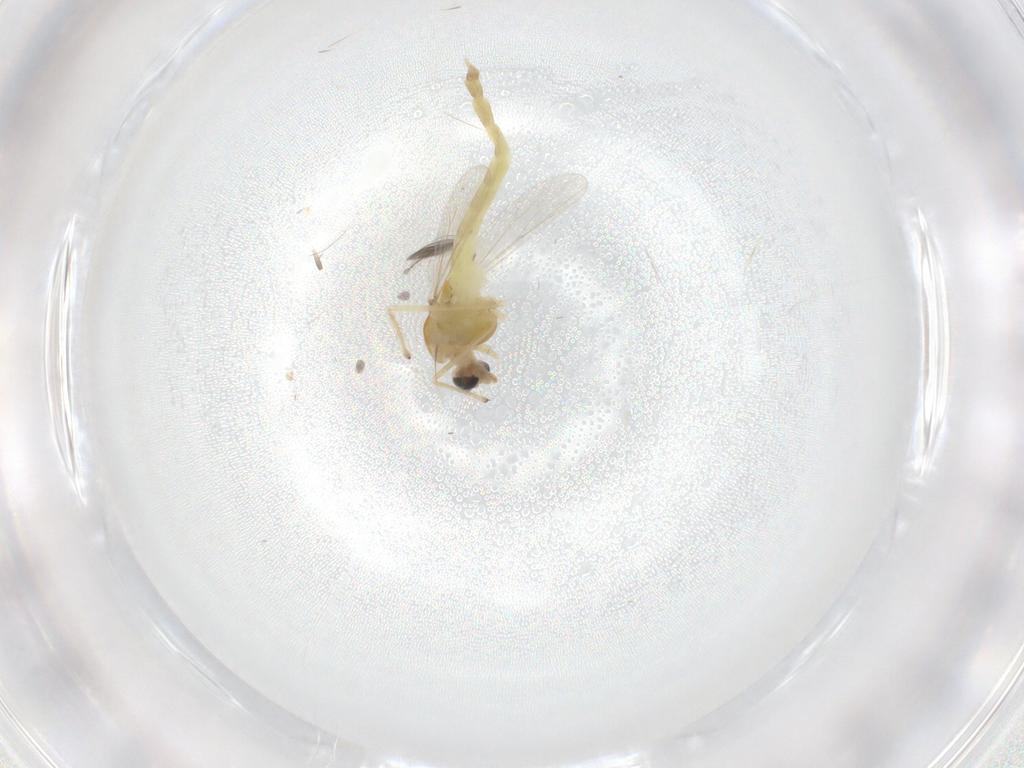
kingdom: Animalia
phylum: Arthropoda
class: Insecta
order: Diptera
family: Chironomidae
